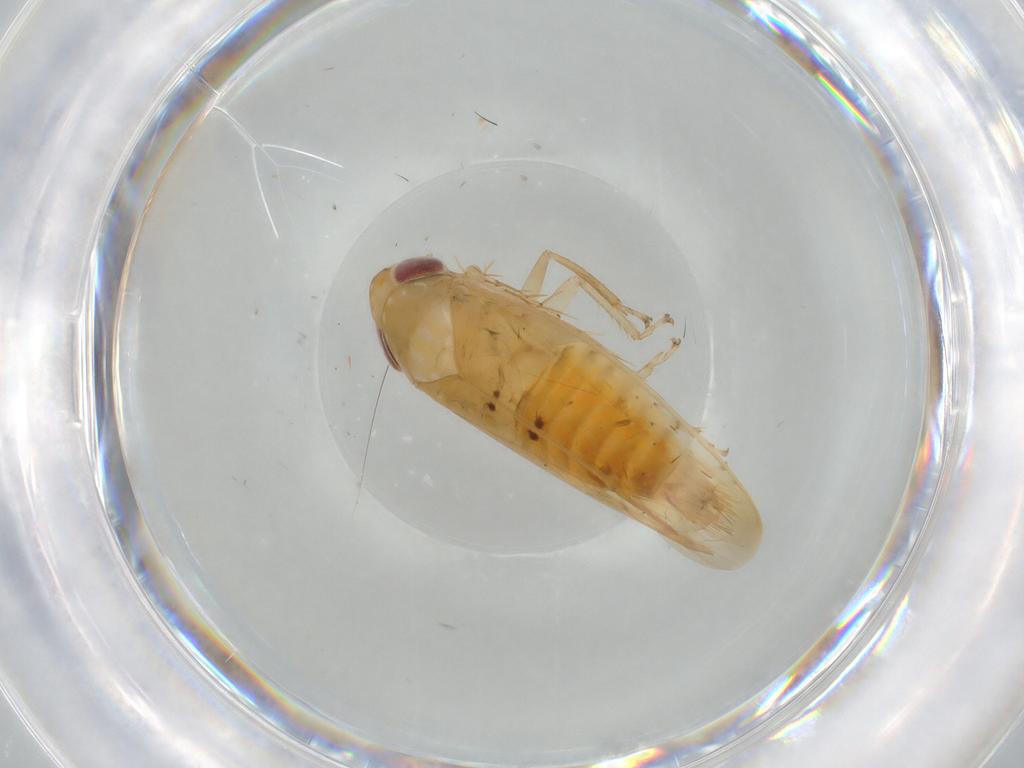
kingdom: Animalia
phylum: Arthropoda
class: Insecta
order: Hemiptera
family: Cicadellidae
